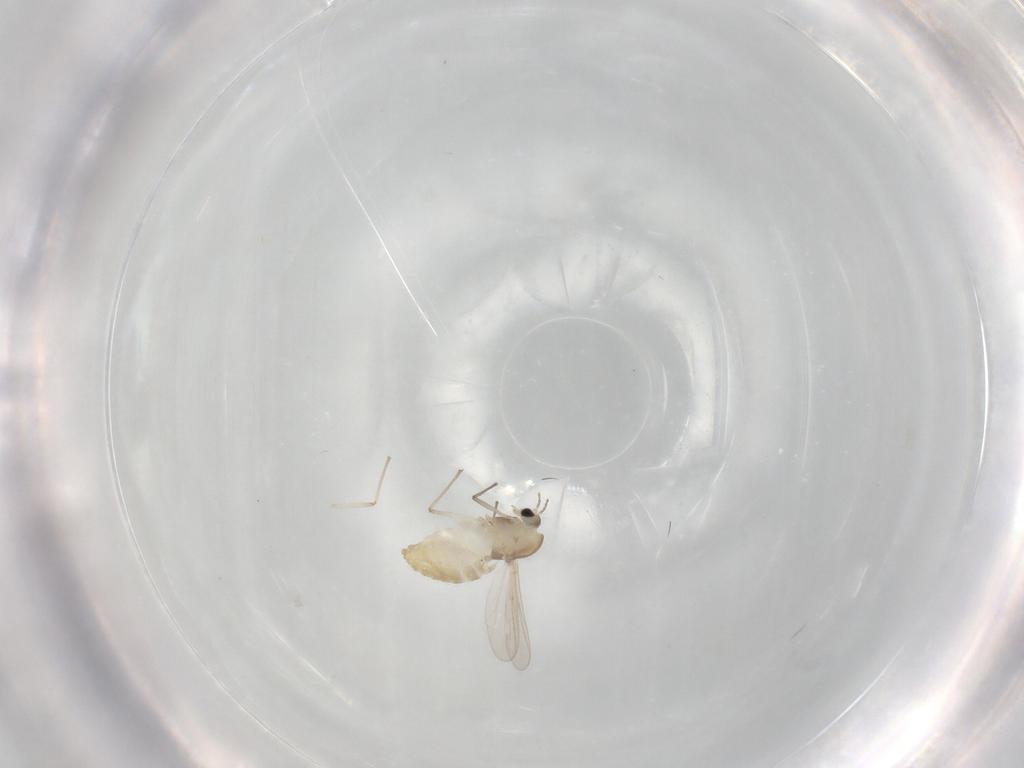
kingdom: Animalia
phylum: Arthropoda
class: Insecta
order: Diptera
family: Chironomidae
